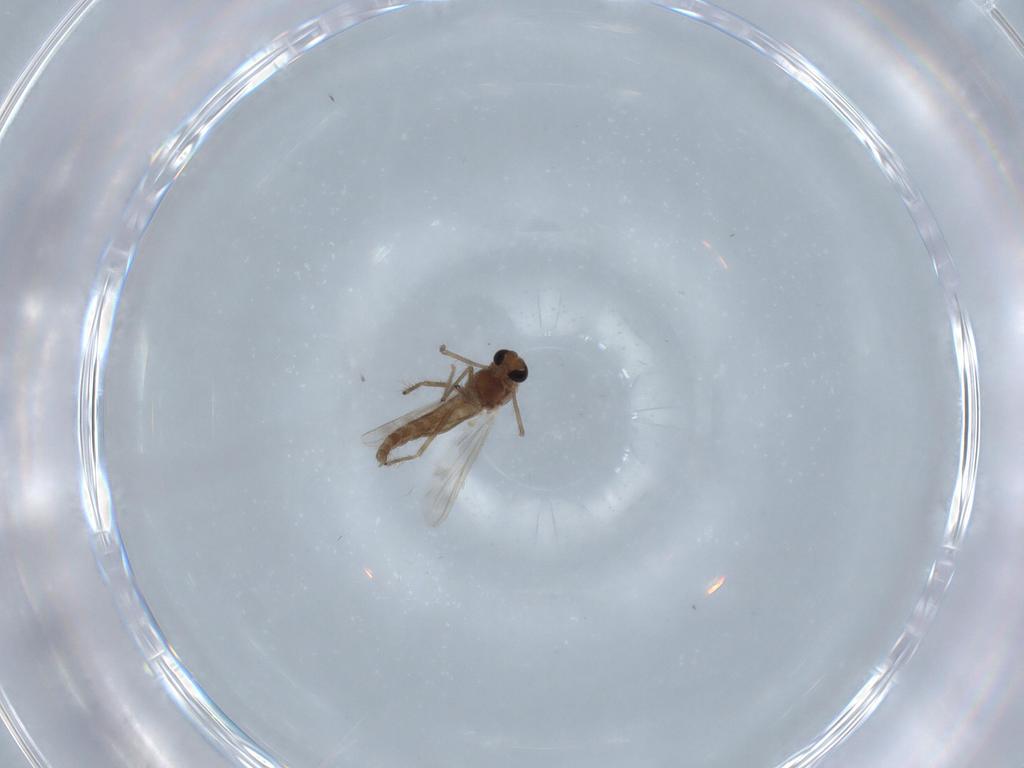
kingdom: Animalia
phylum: Arthropoda
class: Insecta
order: Diptera
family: Chironomidae
